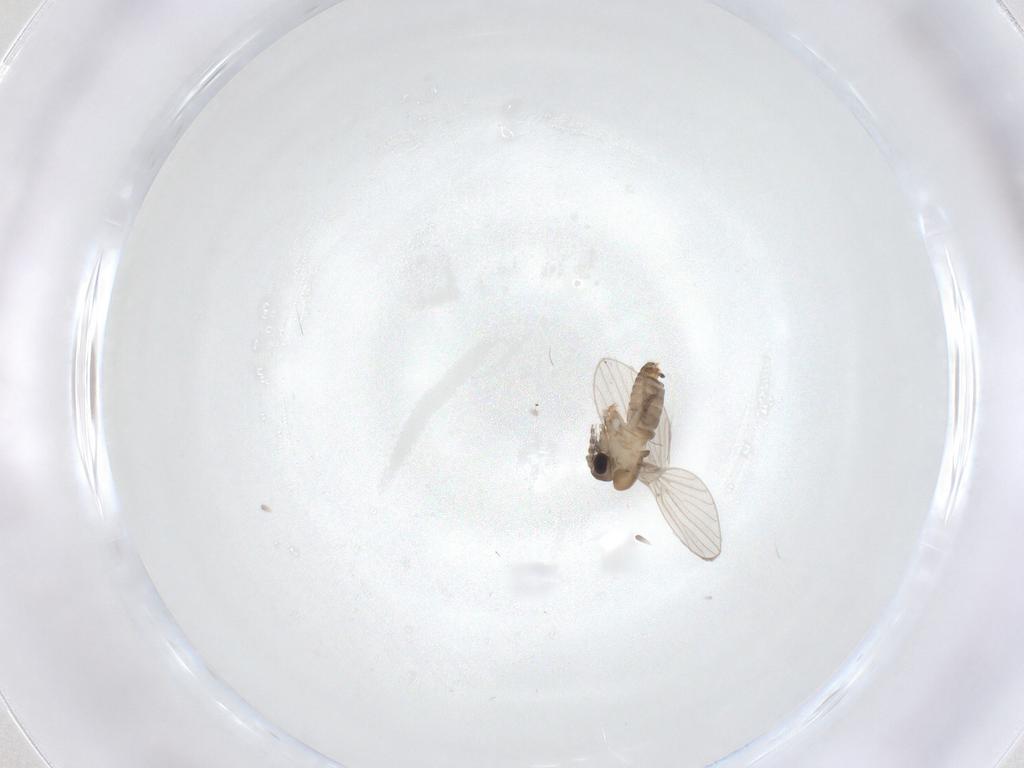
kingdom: Animalia
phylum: Arthropoda
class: Insecta
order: Diptera
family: Psychodidae
